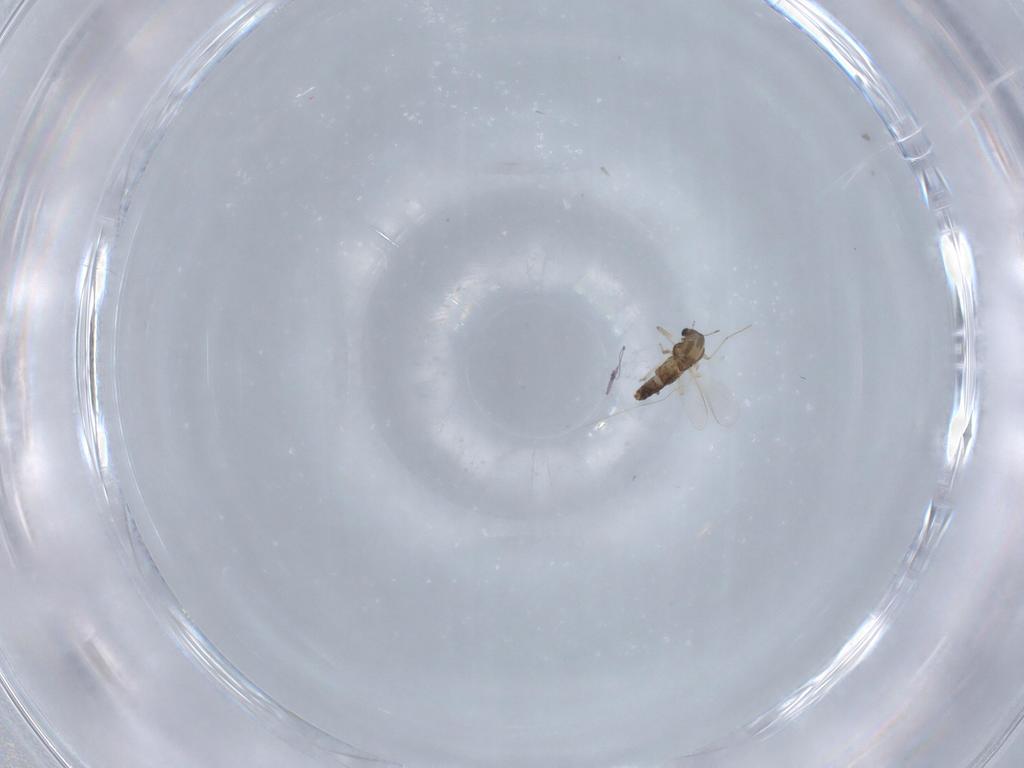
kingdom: Animalia
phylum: Arthropoda
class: Insecta
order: Diptera
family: Chironomidae
